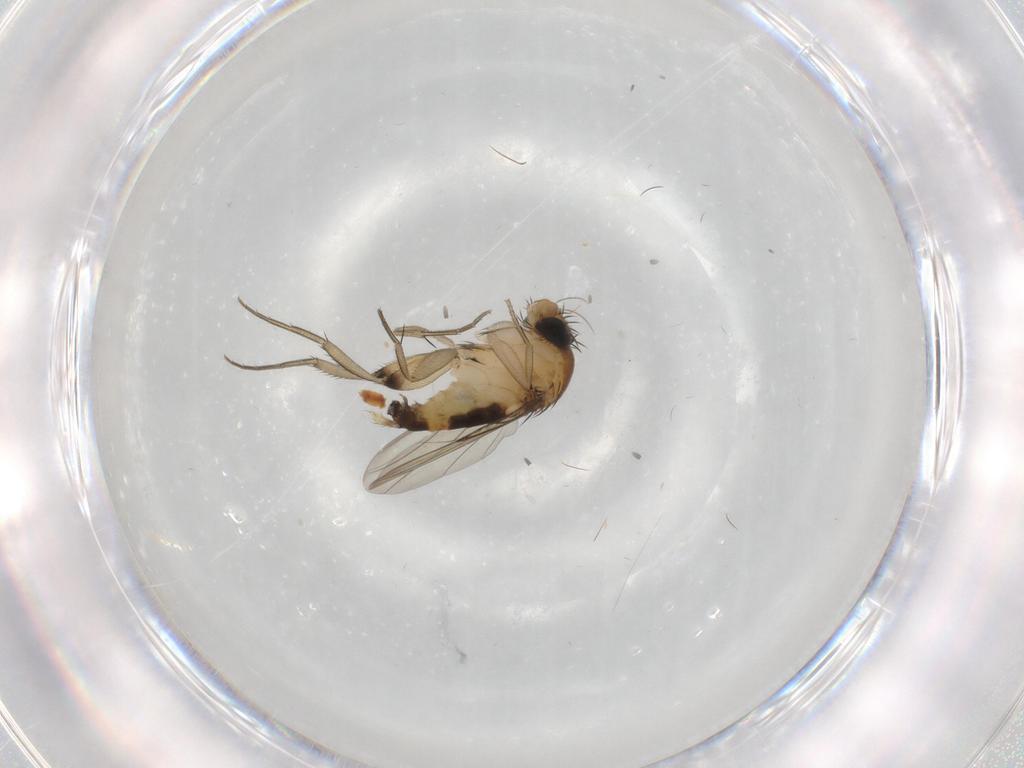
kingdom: Animalia
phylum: Arthropoda
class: Insecta
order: Diptera
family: Phoridae
